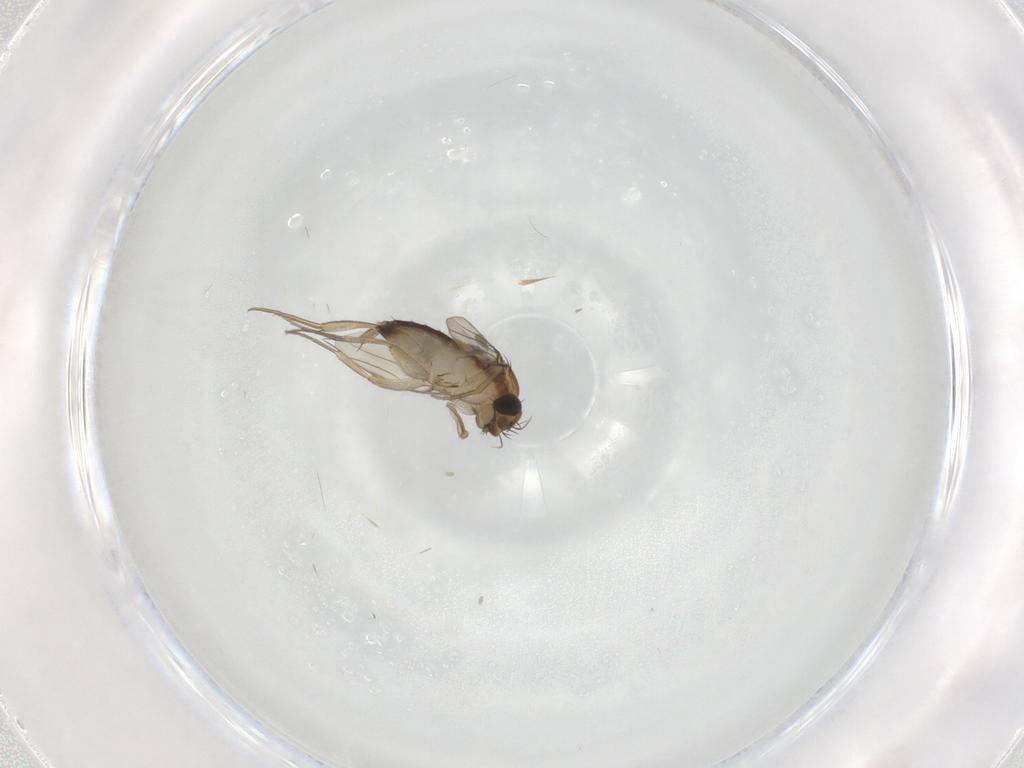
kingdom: Animalia
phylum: Arthropoda
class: Insecta
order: Diptera
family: Phoridae
